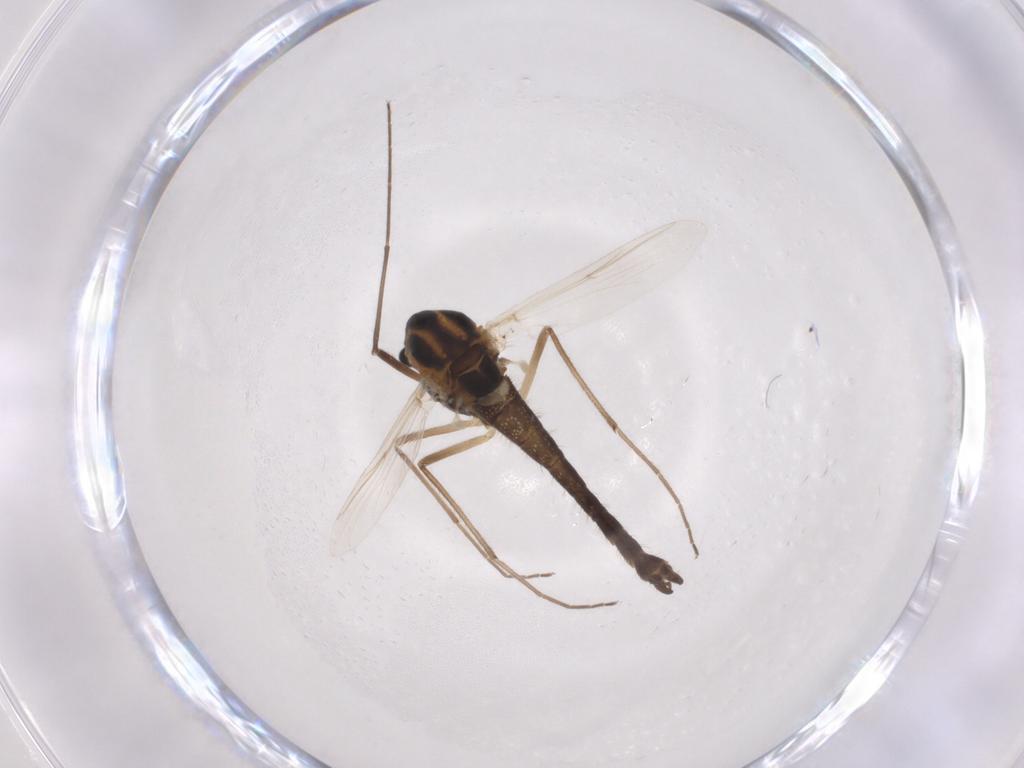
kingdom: Animalia
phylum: Arthropoda
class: Insecta
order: Diptera
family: Chironomidae
